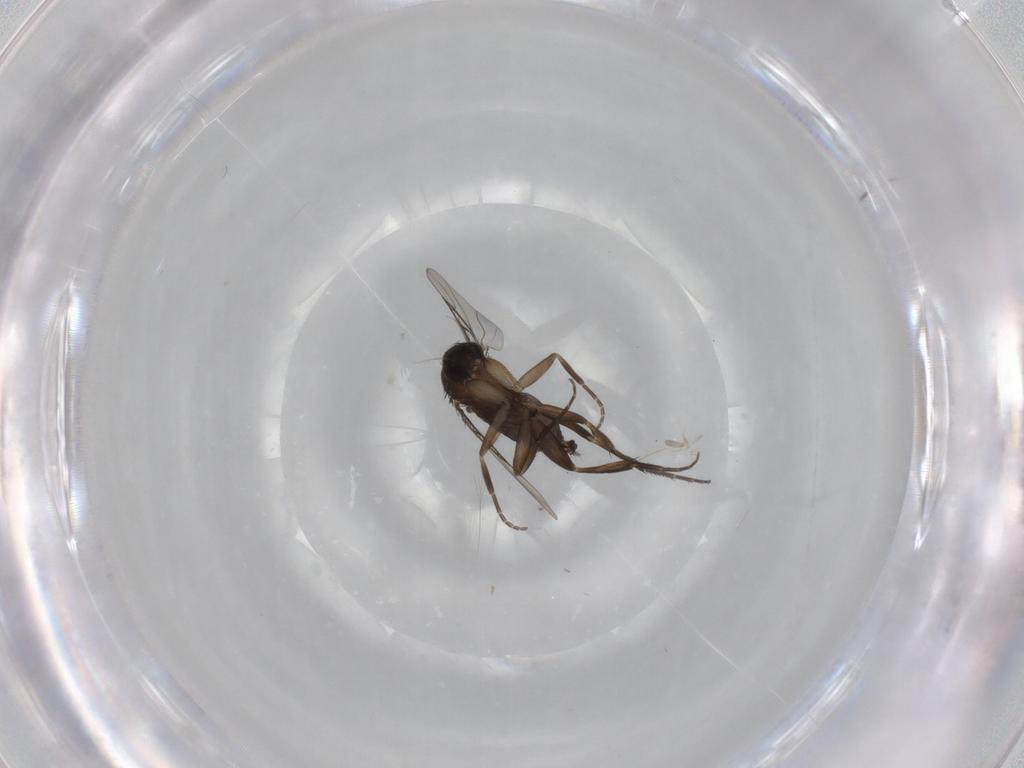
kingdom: Animalia
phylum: Arthropoda
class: Insecta
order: Diptera
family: Phoridae
